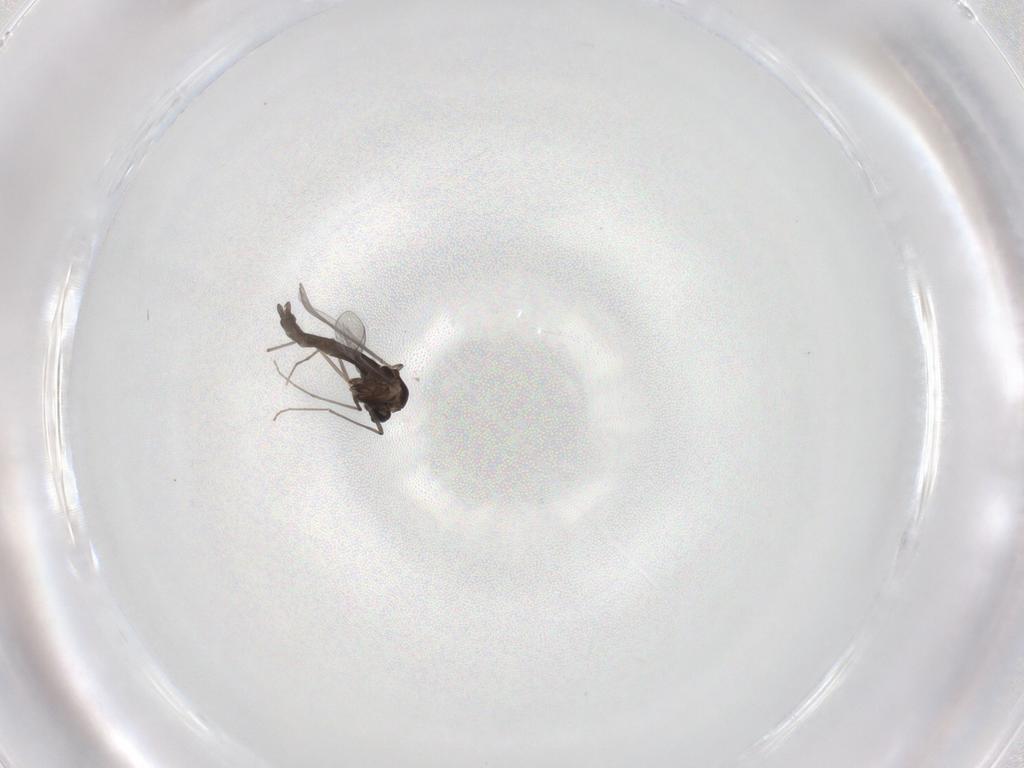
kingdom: Animalia
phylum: Arthropoda
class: Insecta
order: Diptera
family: Chironomidae
